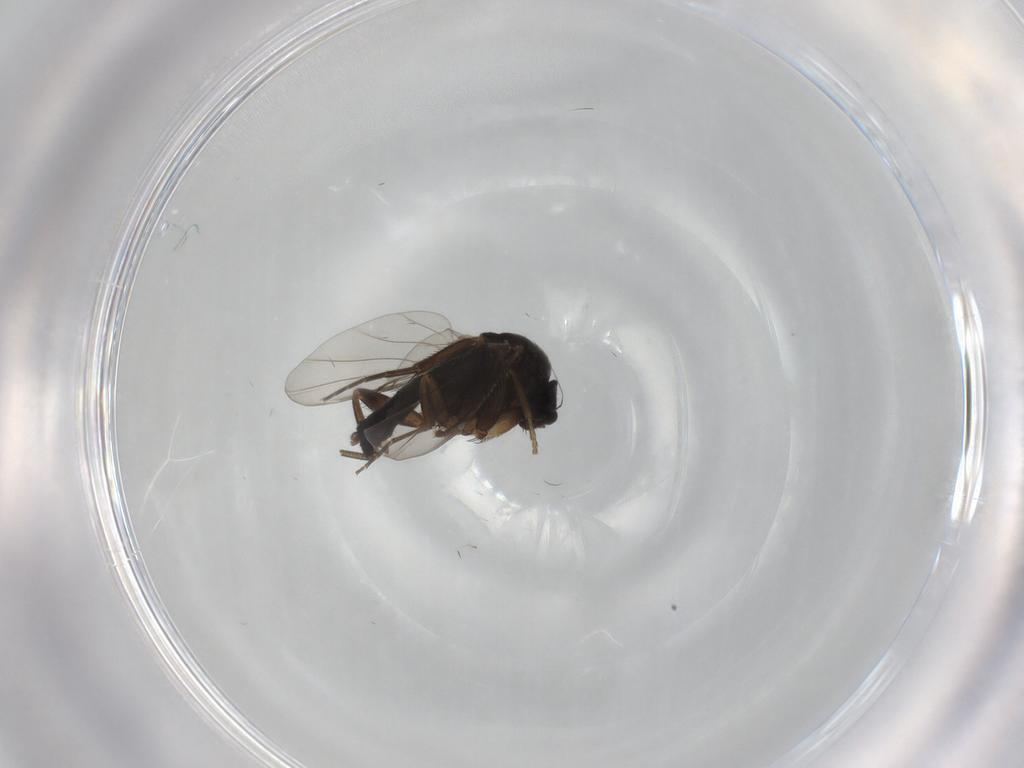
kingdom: Animalia
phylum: Arthropoda
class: Insecta
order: Diptera
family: Phoridae
